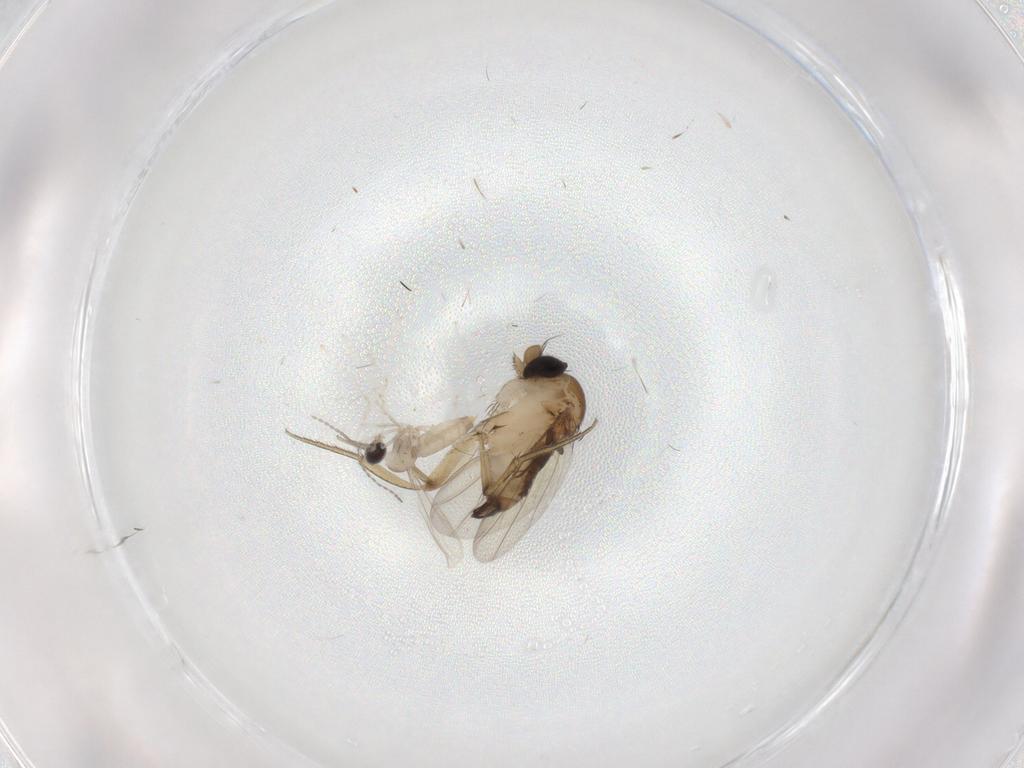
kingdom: Animalia
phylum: Arthropoda
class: Insecta
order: Diptera
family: Cecidomyiidae
